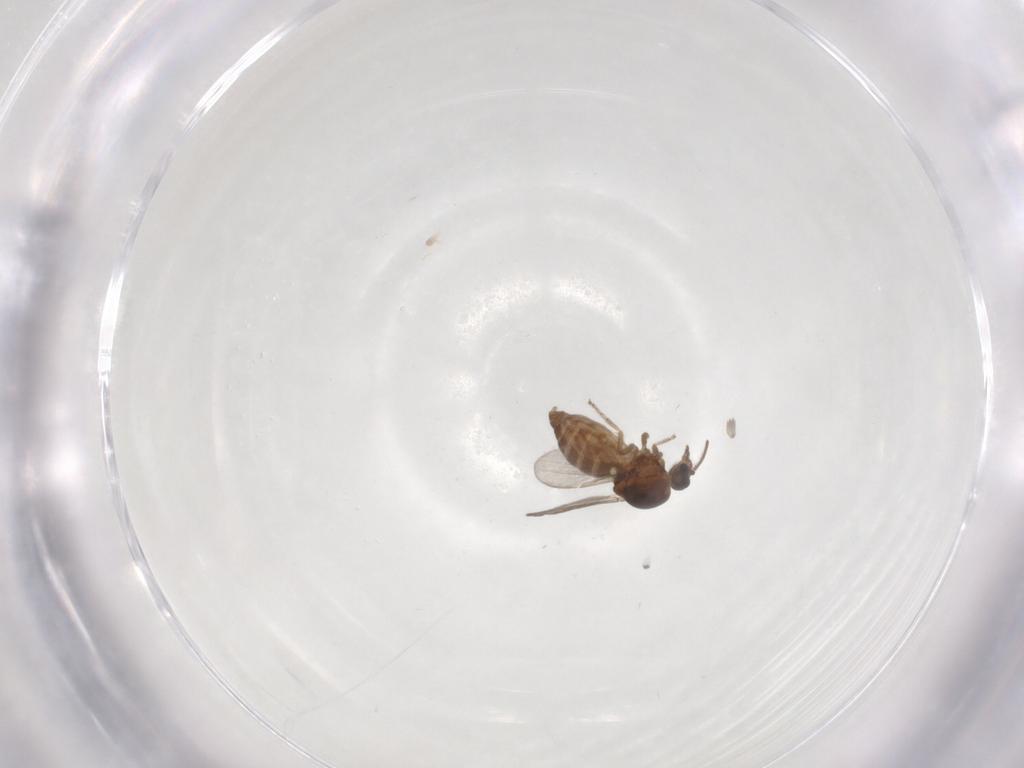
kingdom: Animalia
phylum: Arthropoda
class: Insecta
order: Diptera
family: Ceratopogonidae
